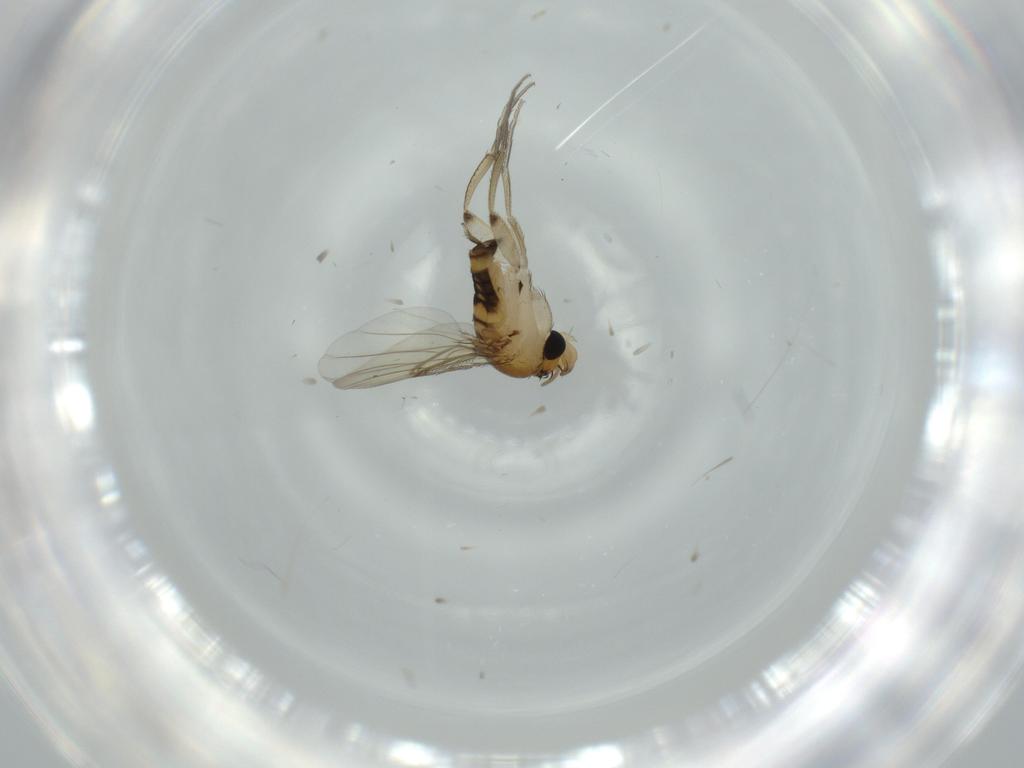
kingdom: Animalia
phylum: Arthropoda
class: Insecta
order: Diptera
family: Phoridae
